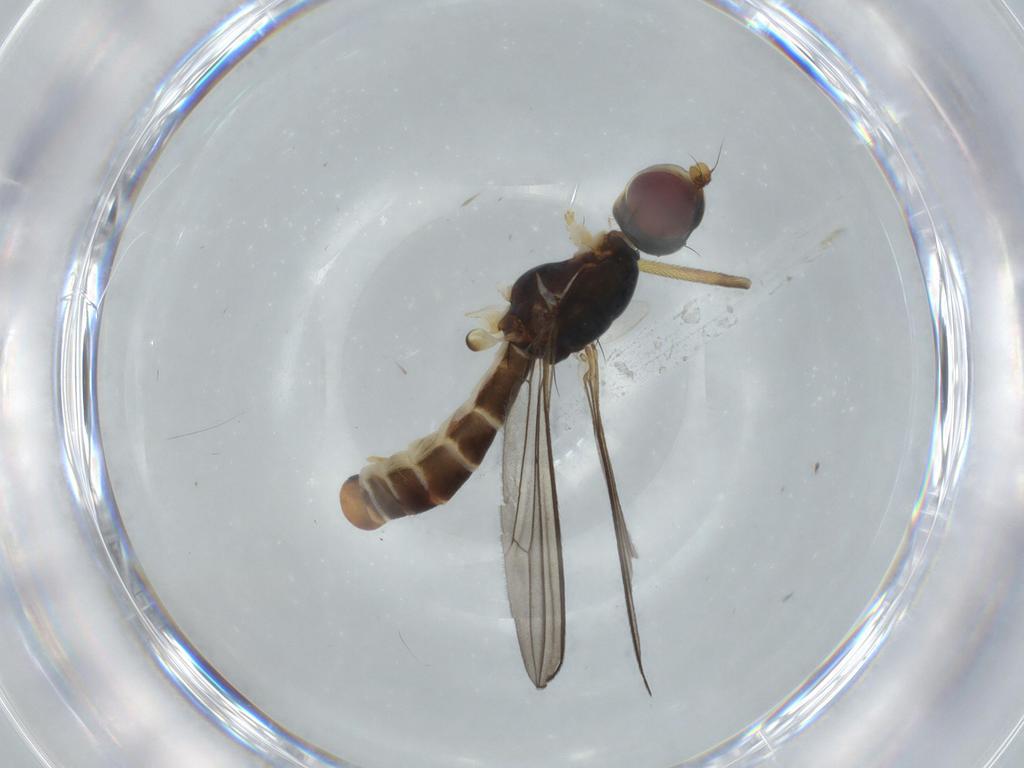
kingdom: Animalia
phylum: Arthropoda
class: Insecta
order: Diptera
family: Micropezidae
